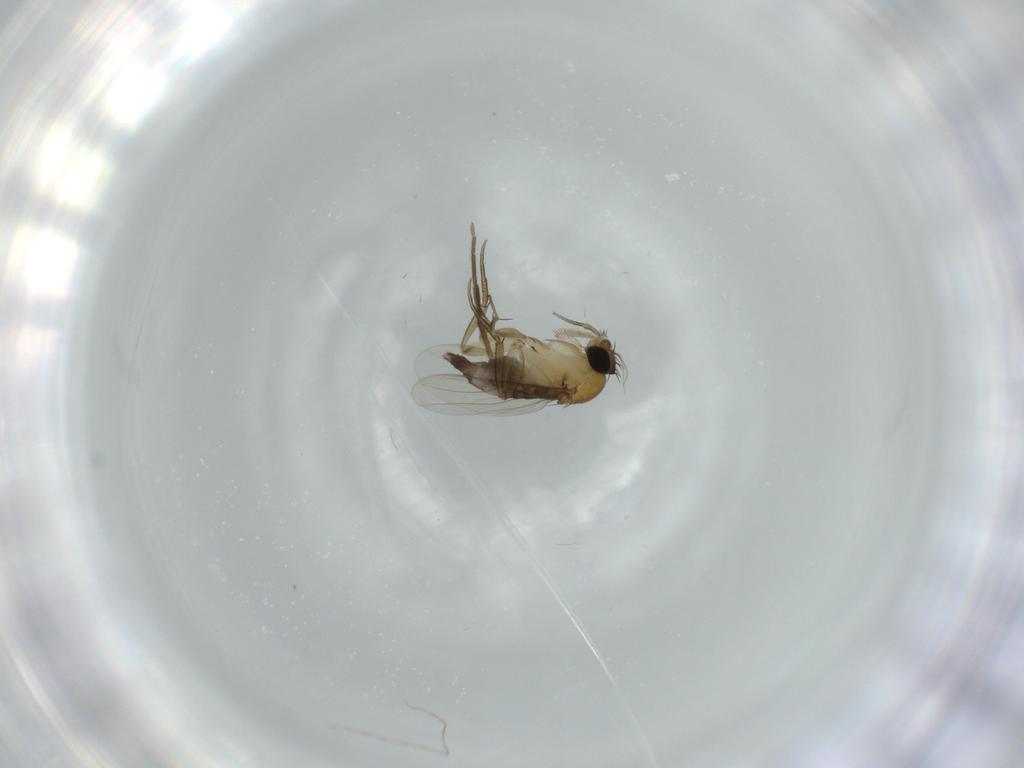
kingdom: Animalia
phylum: Arthropoda
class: Insecta
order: Diptera
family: Phoridae
